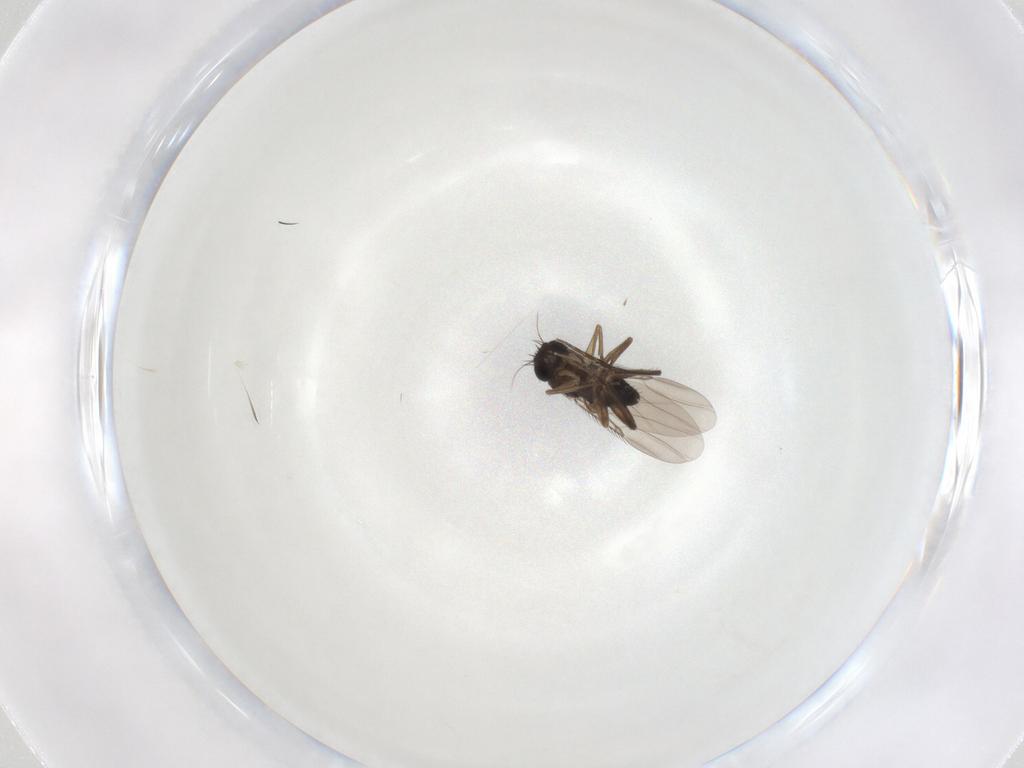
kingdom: Animalia
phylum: Arthropoda
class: Insecta
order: Diptera
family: Phoridae
